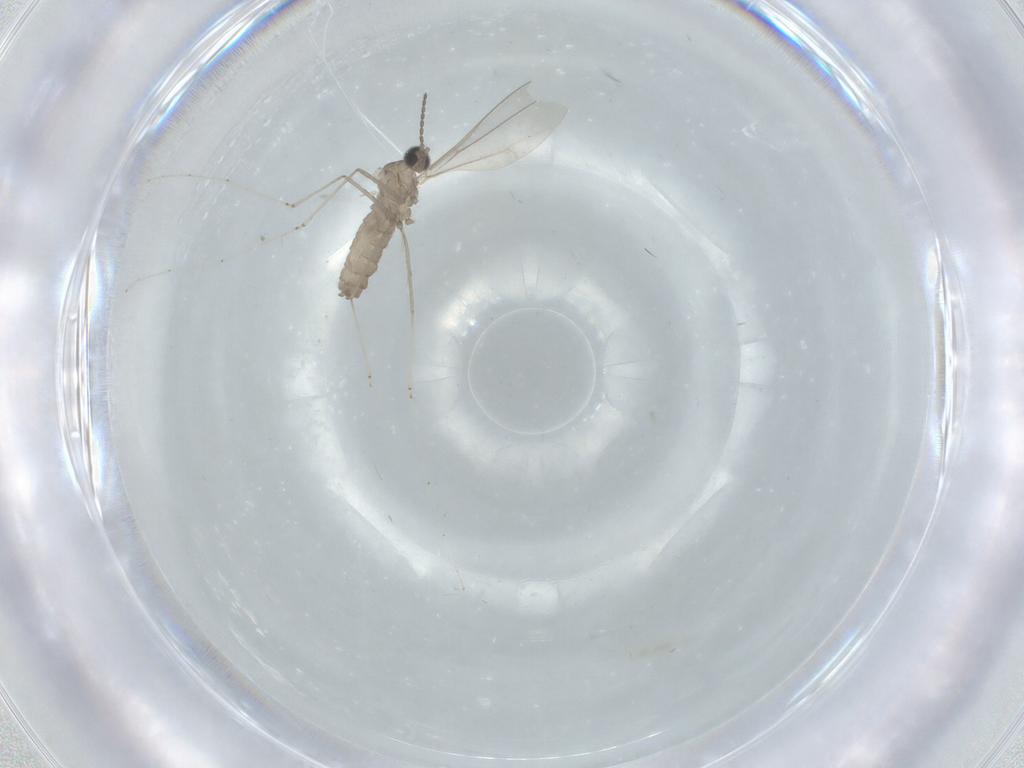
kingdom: Animalia
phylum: Arthropoda
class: Insecta
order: Diptera
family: Cecidomyiidae
